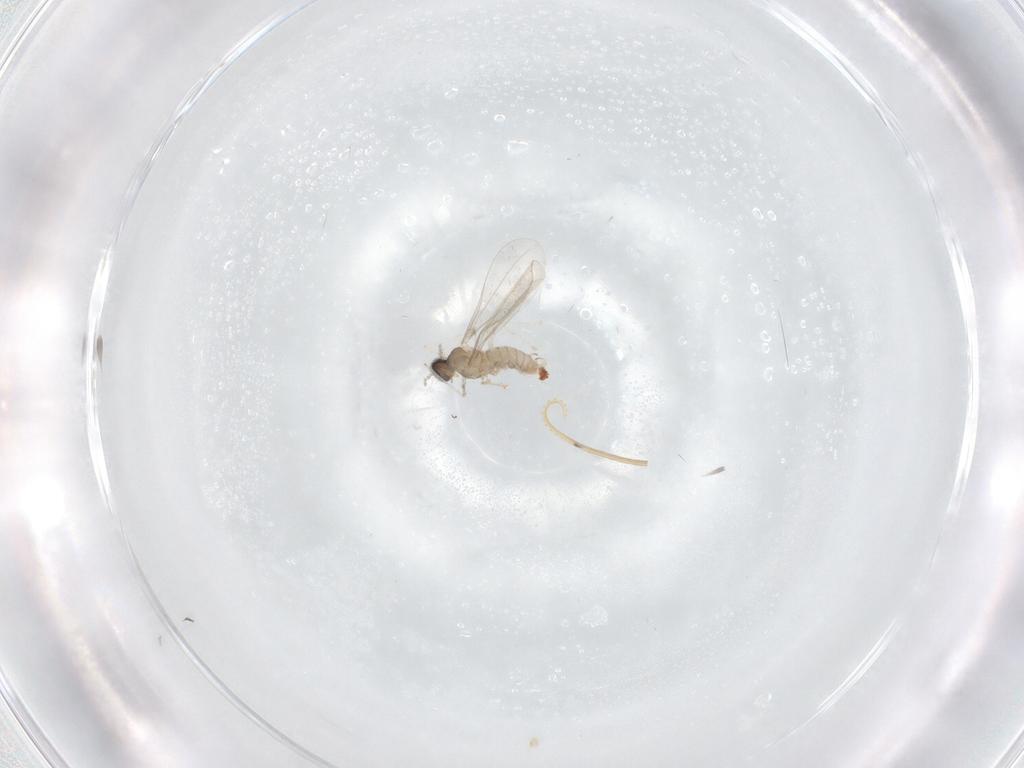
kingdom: Animalia
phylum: Arthropoda
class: Insecta
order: Diptera
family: Cecidomyiidae
